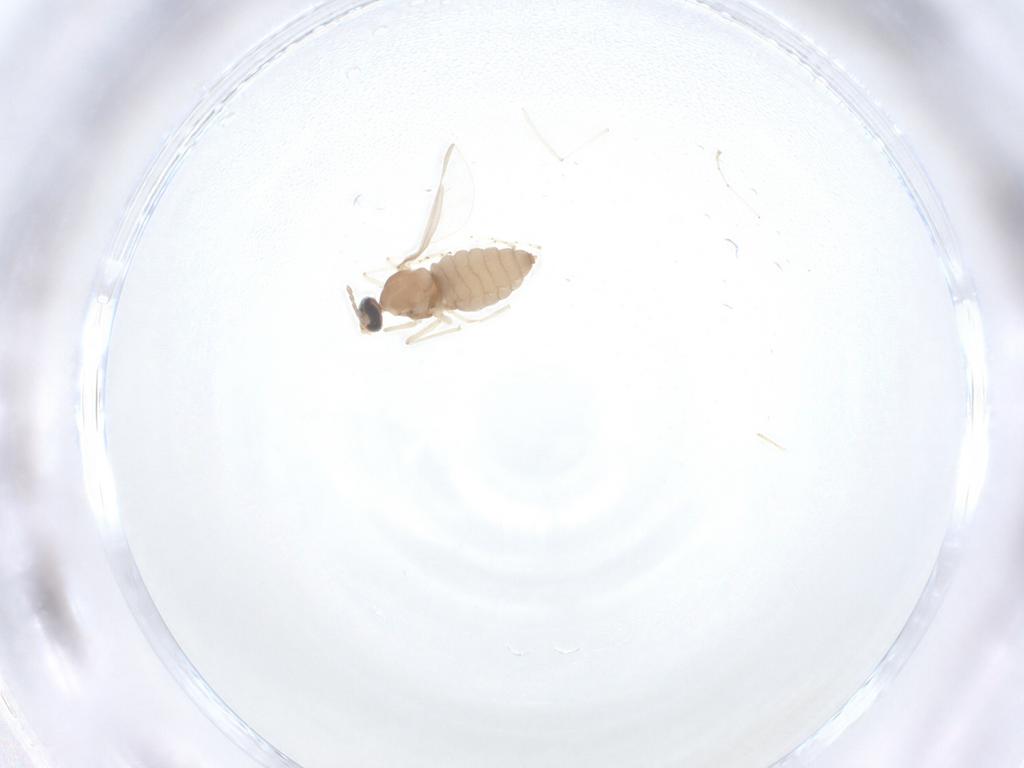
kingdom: Animalia
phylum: Arthropoda
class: Insecta
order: Diptera
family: Cecidomyiidae
